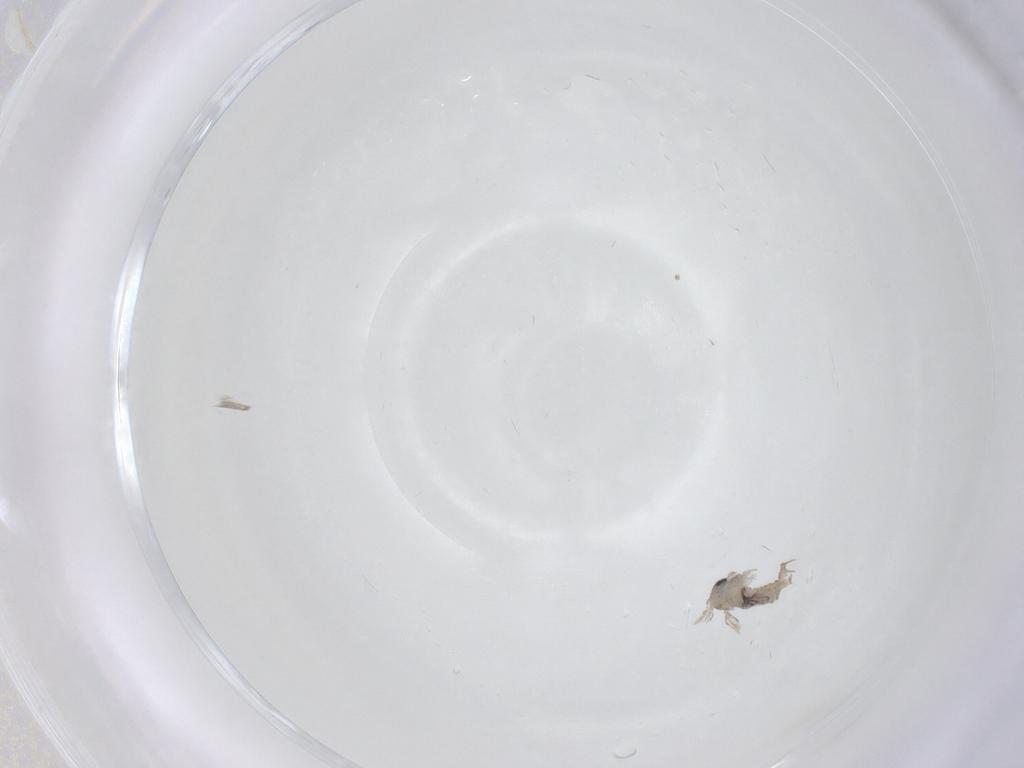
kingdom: Animalia
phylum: Arthropoda
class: Insecta
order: Diptera
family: Psychodidae
